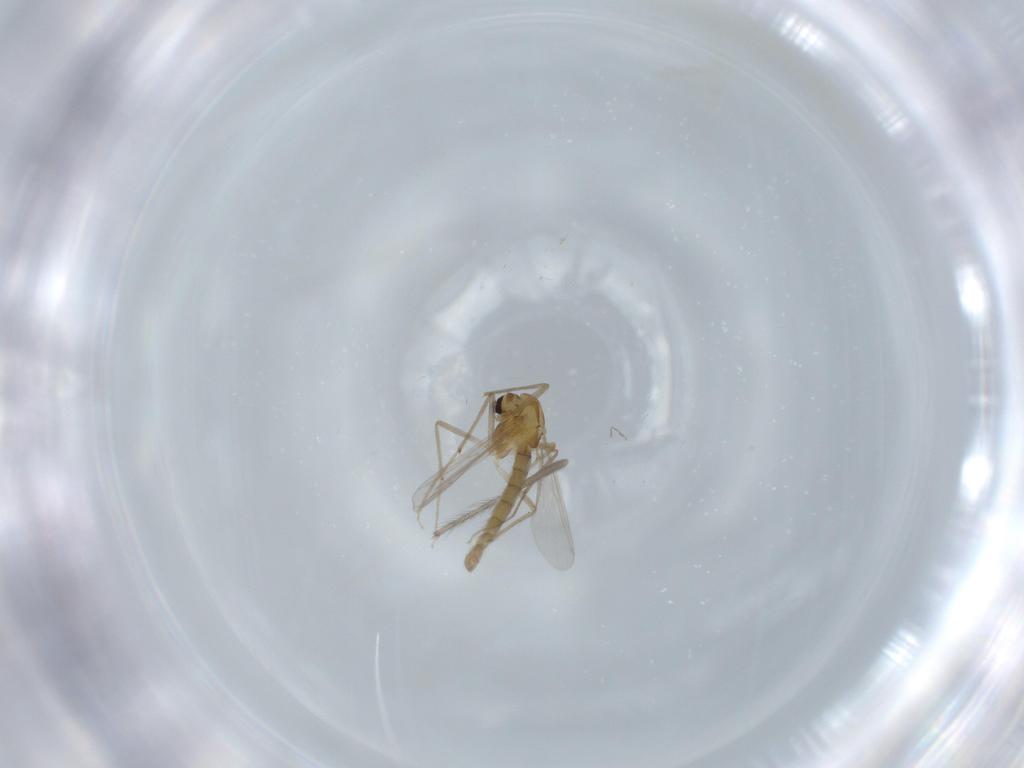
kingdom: Animalia
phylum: Arthropoda
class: Insecta
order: Diptera
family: Chironomidae
